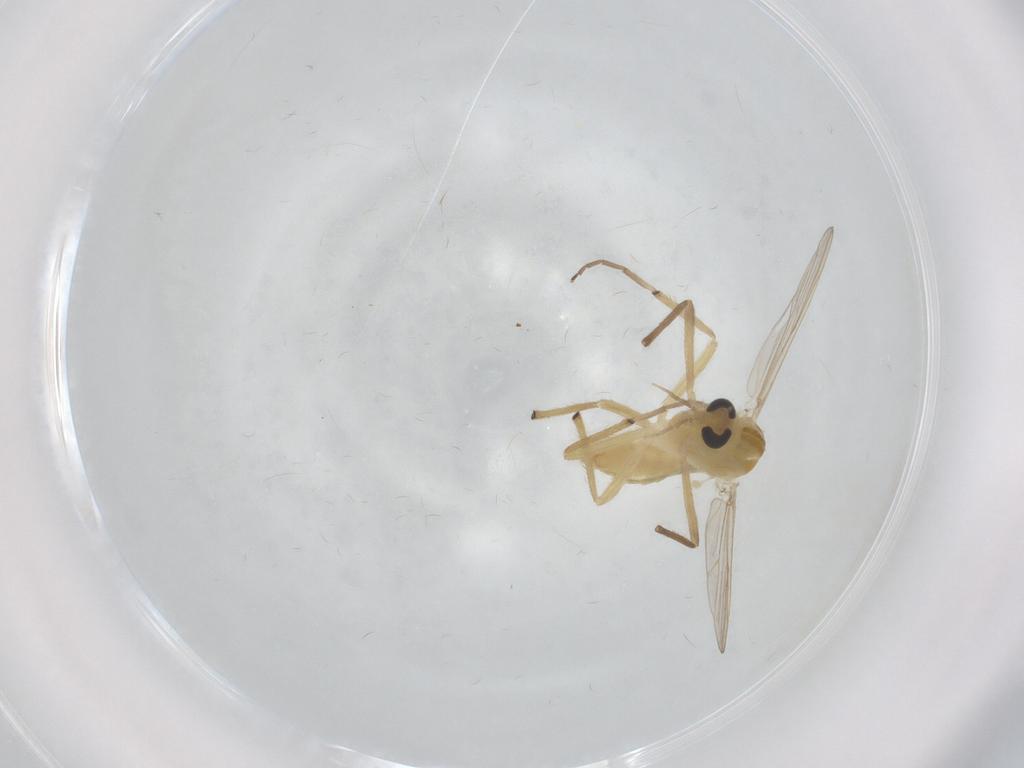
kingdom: Animalia
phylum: Arthropoda
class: Insecta
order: Diptera
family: Chironomidae
